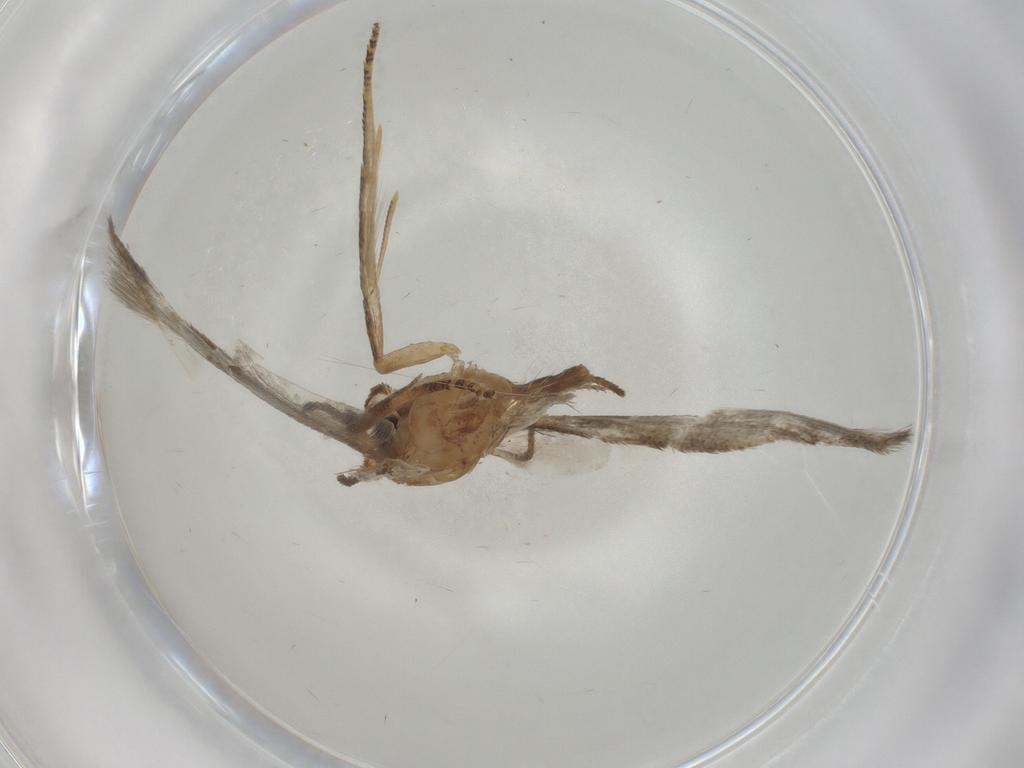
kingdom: Animalia
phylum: Arthropoda
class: Insecta
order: Lepidoptera
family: Blastobasidae
